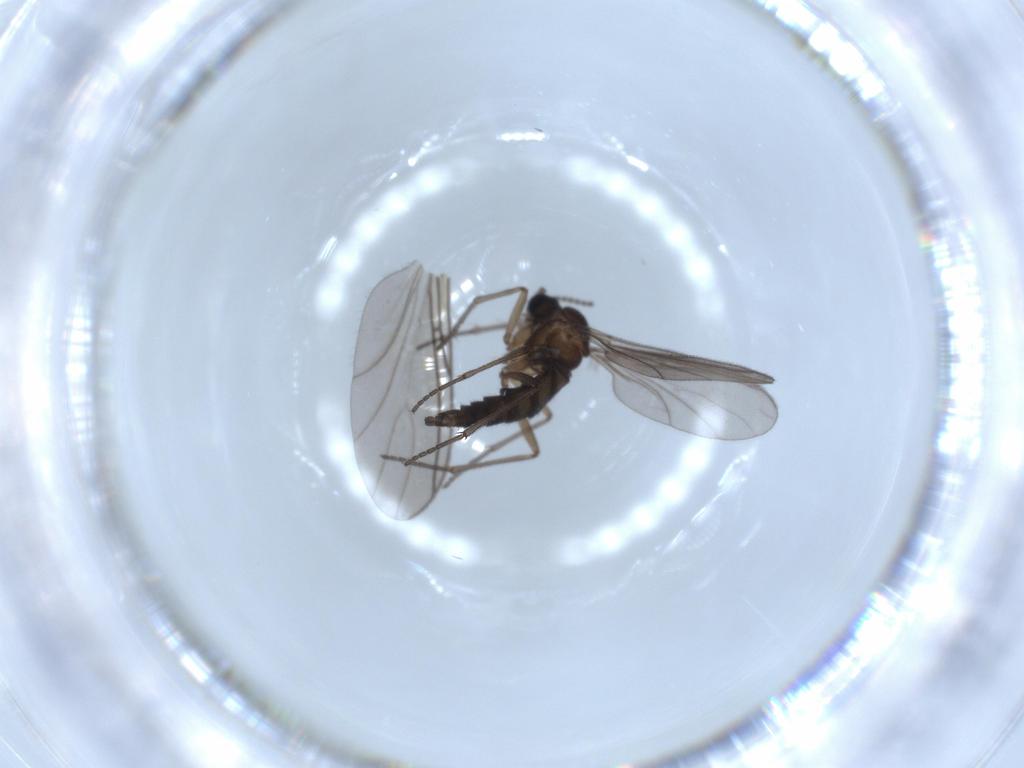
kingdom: Animalia
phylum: Arthropoda
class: Insecta
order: Diptera
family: Sciaridae
